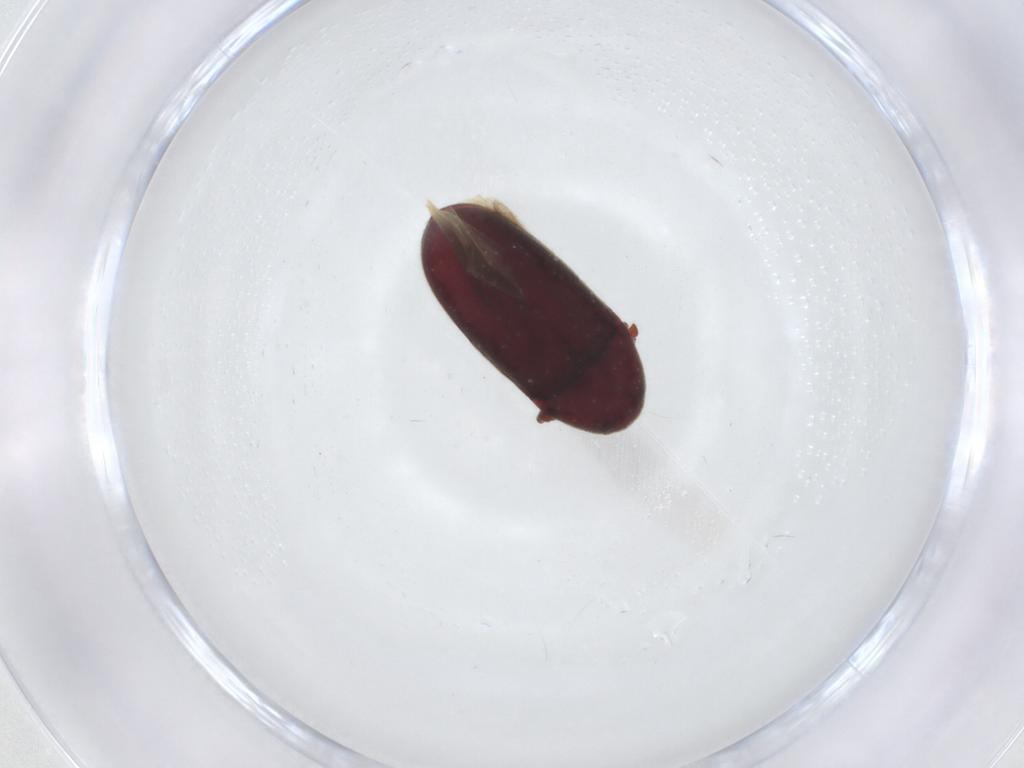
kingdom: Animalia
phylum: Arthropoda
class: Insecta
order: Coleoptera
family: Throscidae
